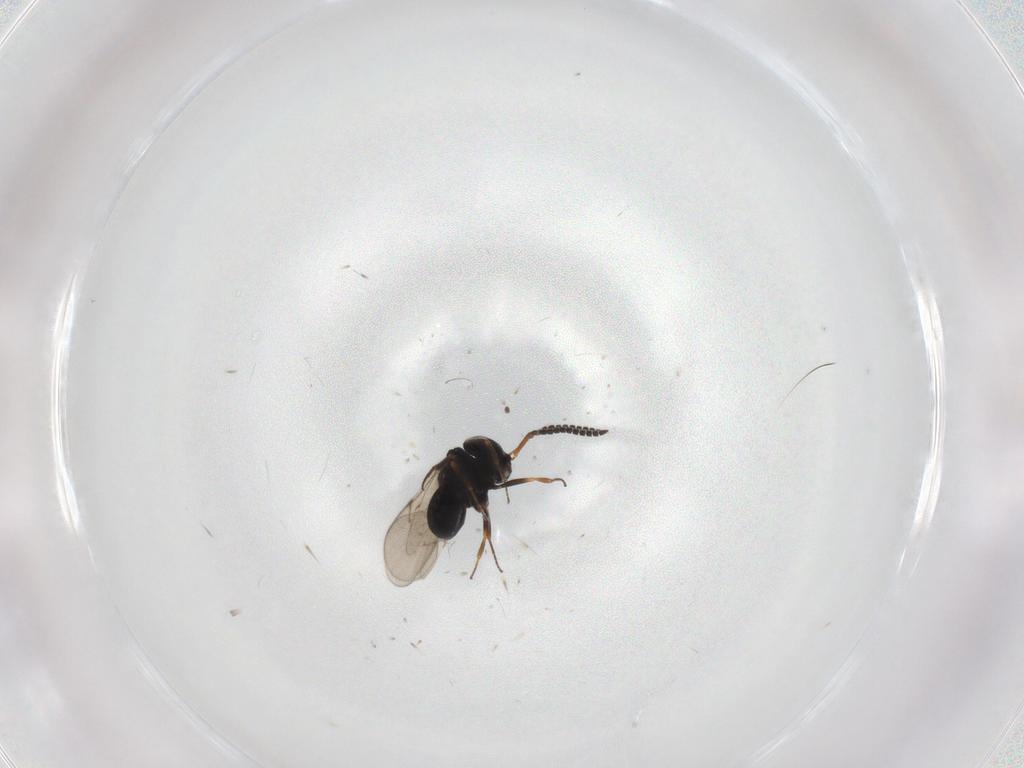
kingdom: Animalia
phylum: Arthropoda
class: Insecta
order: Hymenoptera
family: Scelionidae
